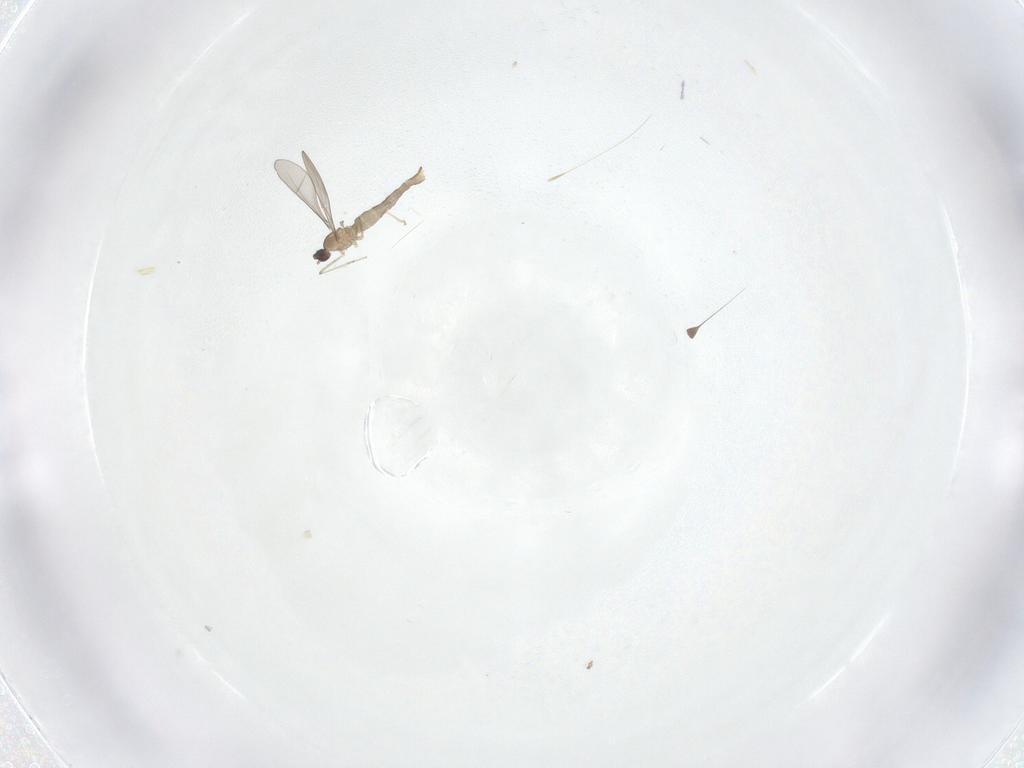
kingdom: Animalia
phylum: Arthropoda
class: Insecta
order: Diptera
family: Cecidomyiidae
